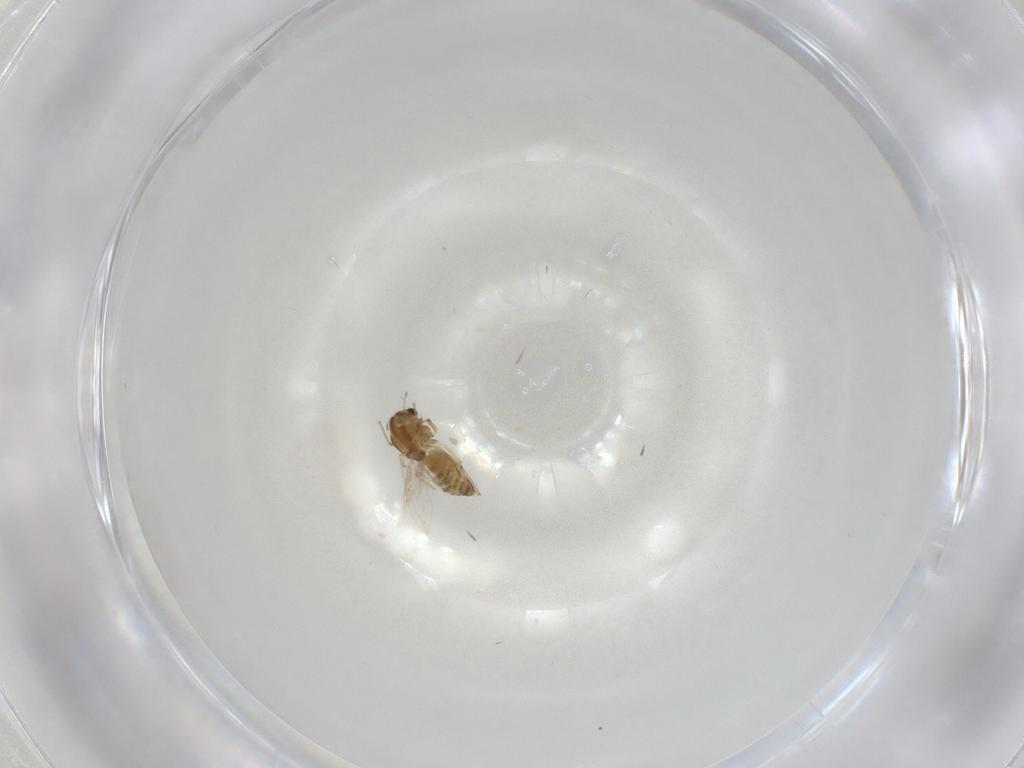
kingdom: Animalia
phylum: Arthropoda
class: Insecta
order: Diptera
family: Chironomidae
